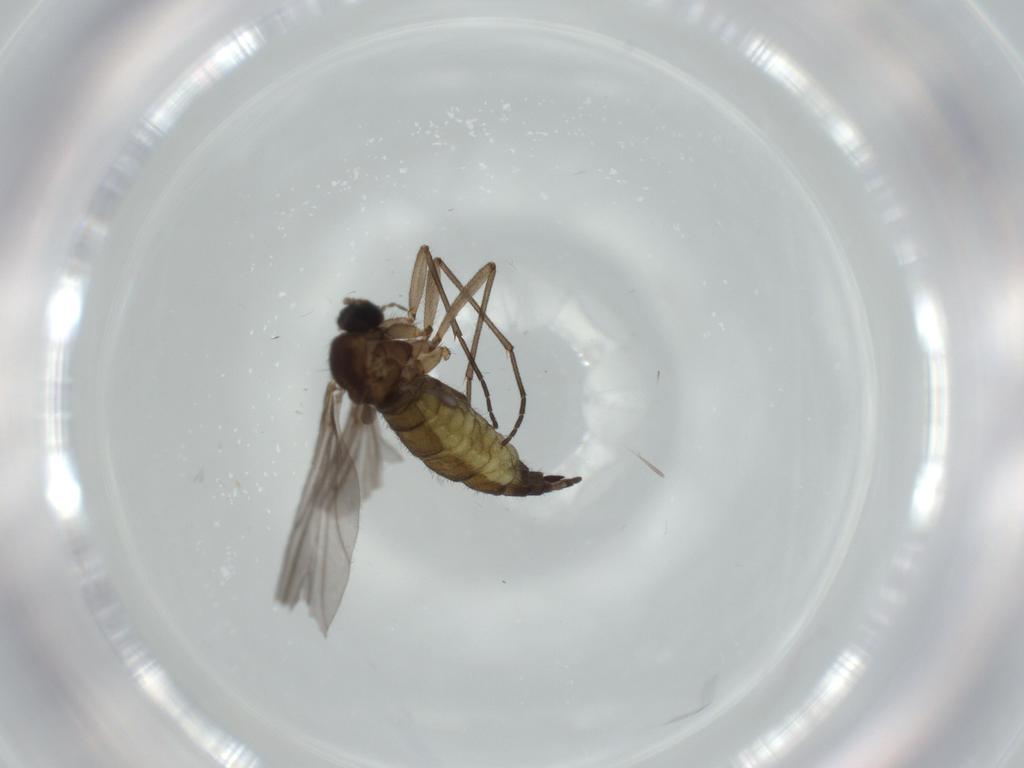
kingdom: Animalia
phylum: Arthropoda
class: Insecta
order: Diptera
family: Sciaridae
